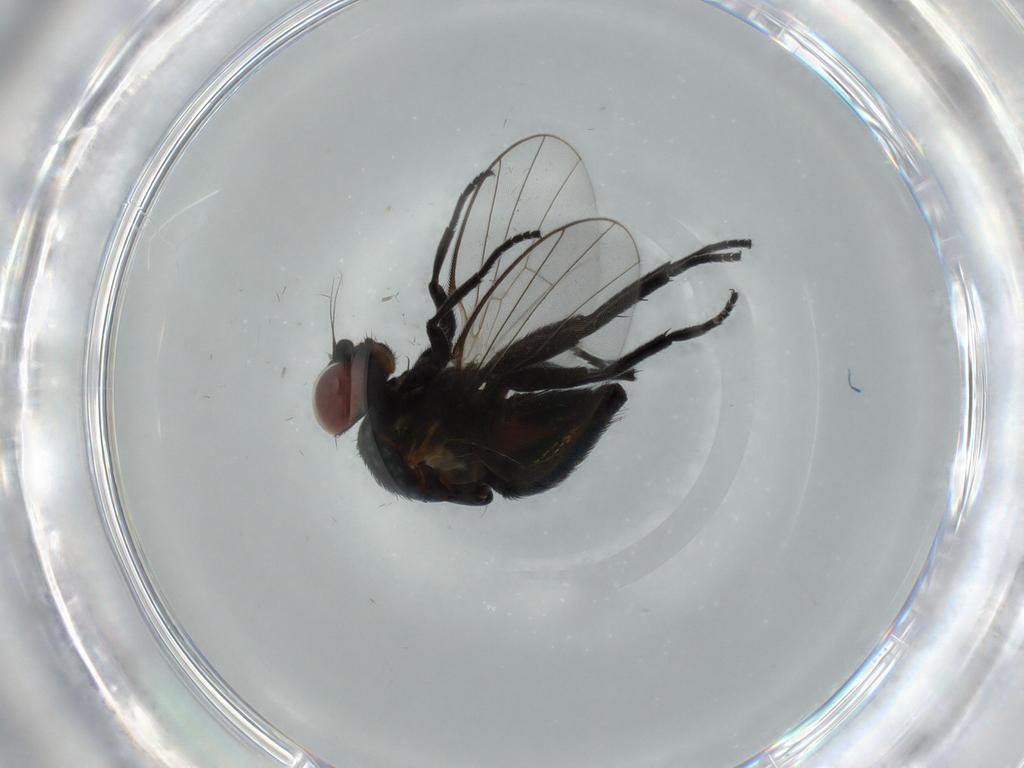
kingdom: Animalia
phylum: Arthropoda
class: Insecta
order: Diptera
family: Agromyzidae
